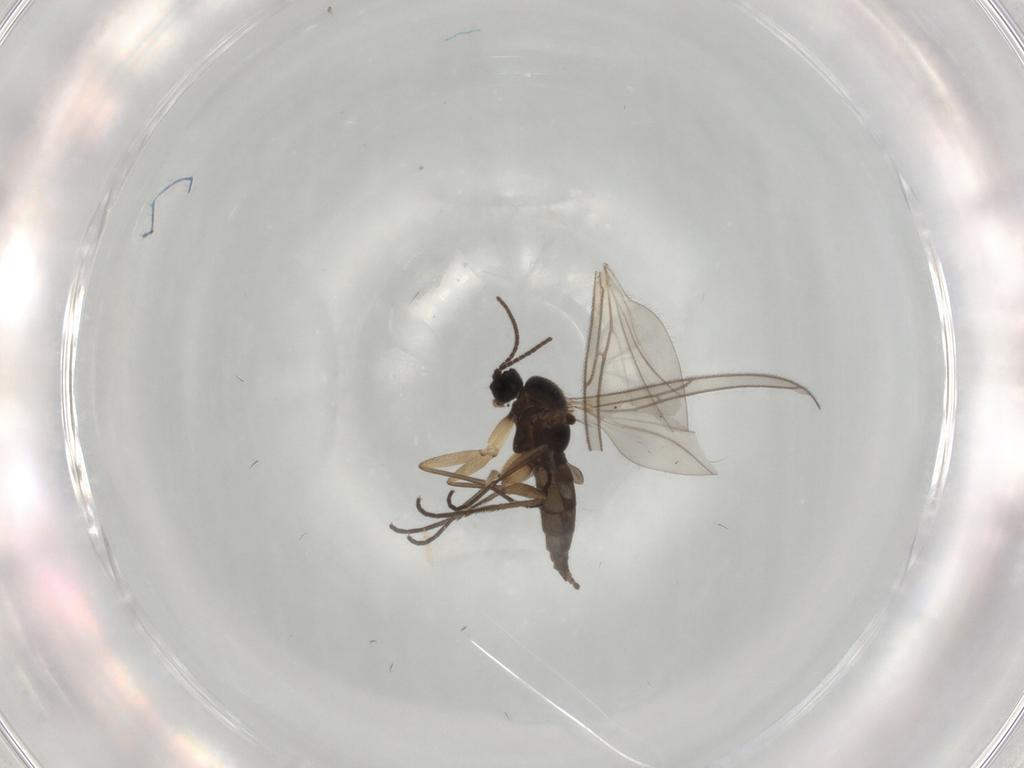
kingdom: Animalia
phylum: Arthropoda
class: Insecta
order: Diptera
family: Sciaridae
